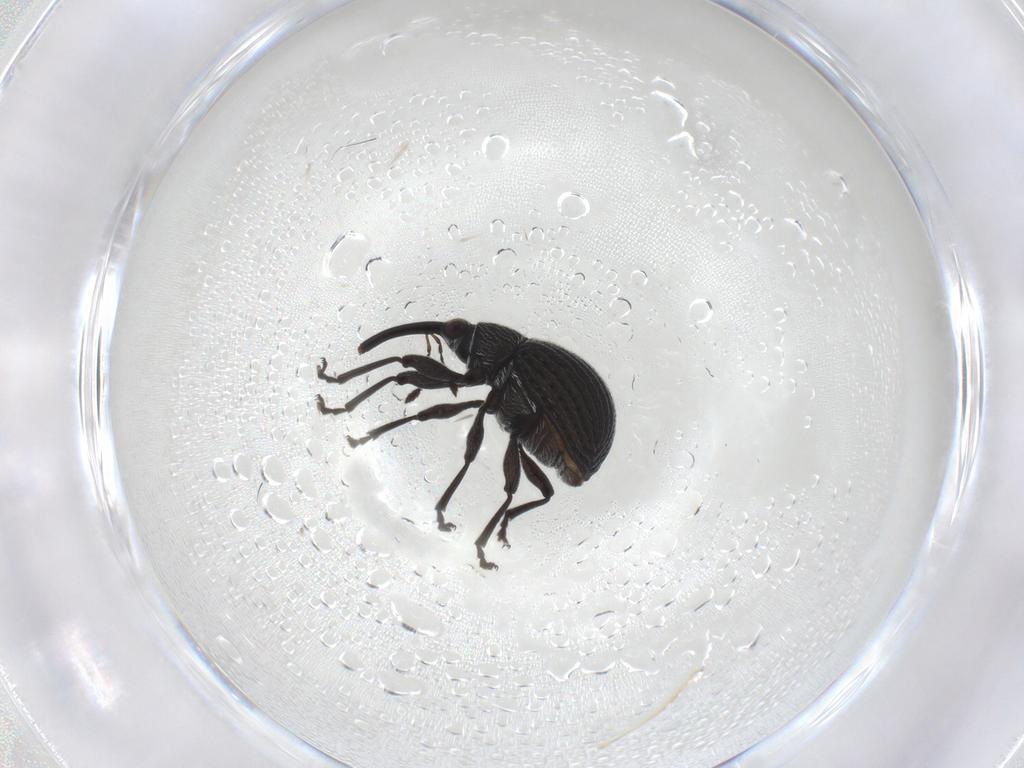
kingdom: Animalia
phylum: Arthropoda
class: Insecta
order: Coleoptera
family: Brentidae
